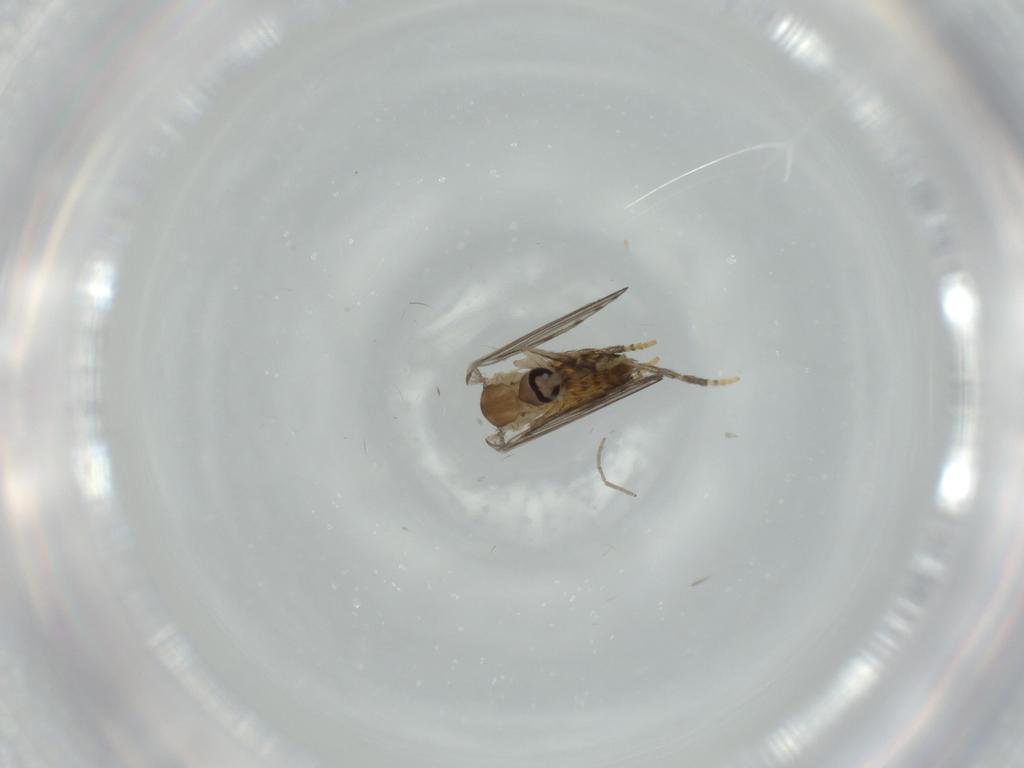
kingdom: Animalia
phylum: Arthropoda
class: Insecta
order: Diptera
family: Psychodidae
